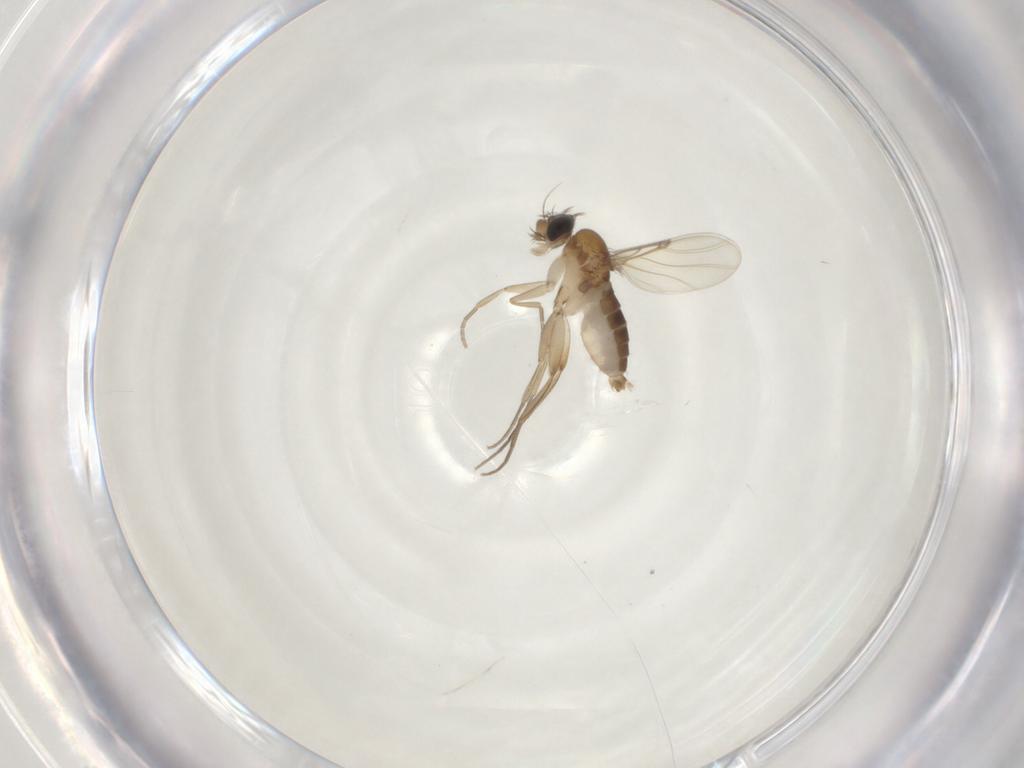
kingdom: Animalia
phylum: Arthropoda
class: Insecta
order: Diptera
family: Phoridae
